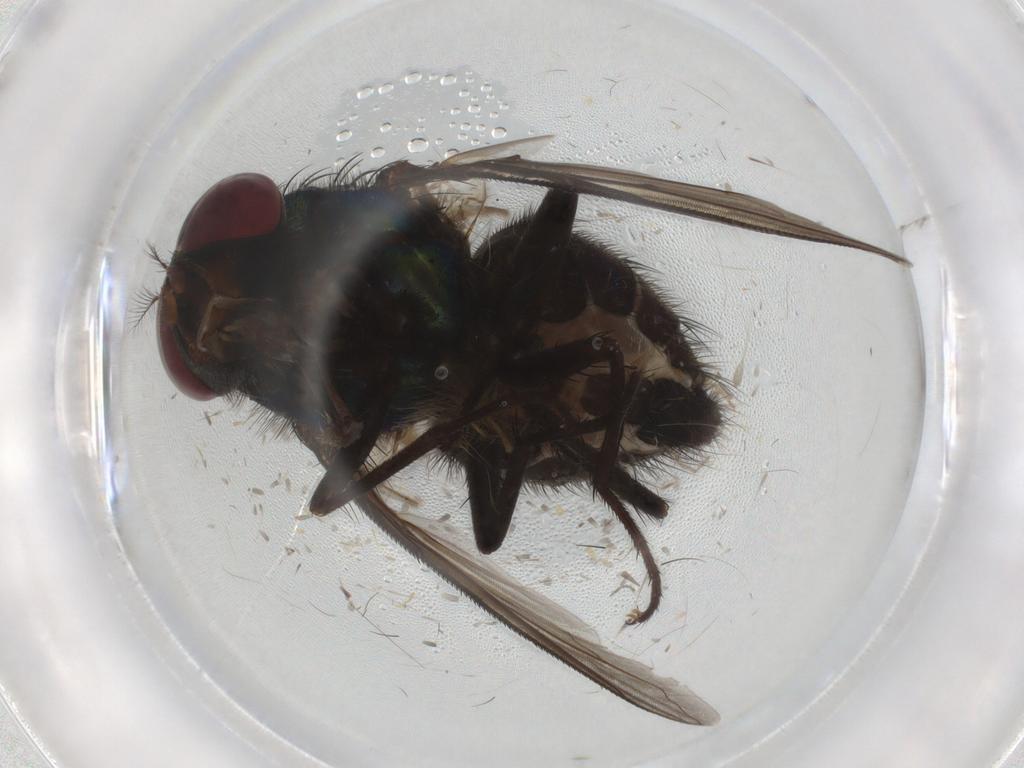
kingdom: Animalia
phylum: Arthropoda
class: Insecta
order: Diptera
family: Calliphoridae
